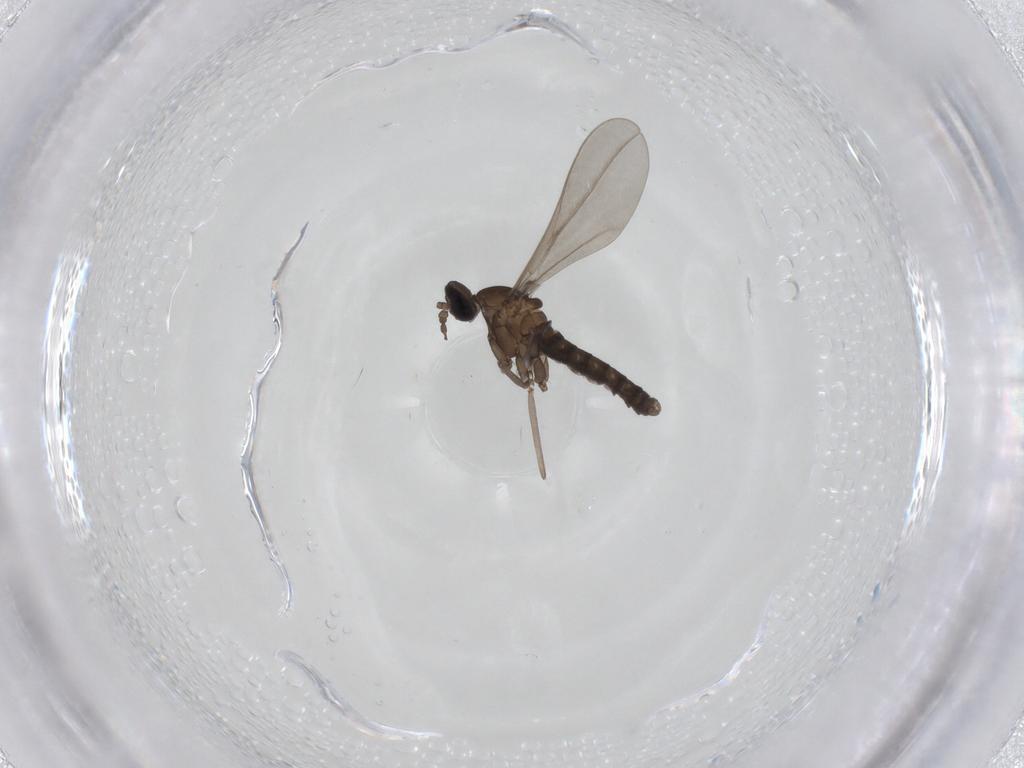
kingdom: Animalia
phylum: Arthropoda
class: Insecta
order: Diptera
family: Cecidomyiidae
